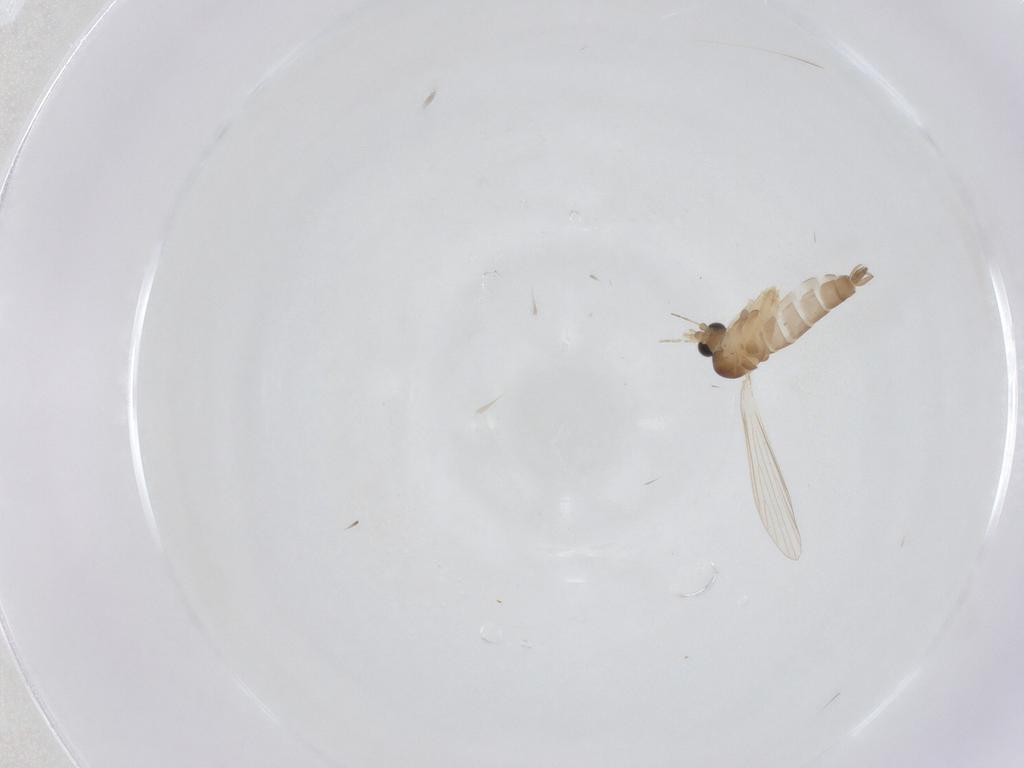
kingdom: Animalia
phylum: Arthropoda
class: Insecta
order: Diptera
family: Psychodidae
